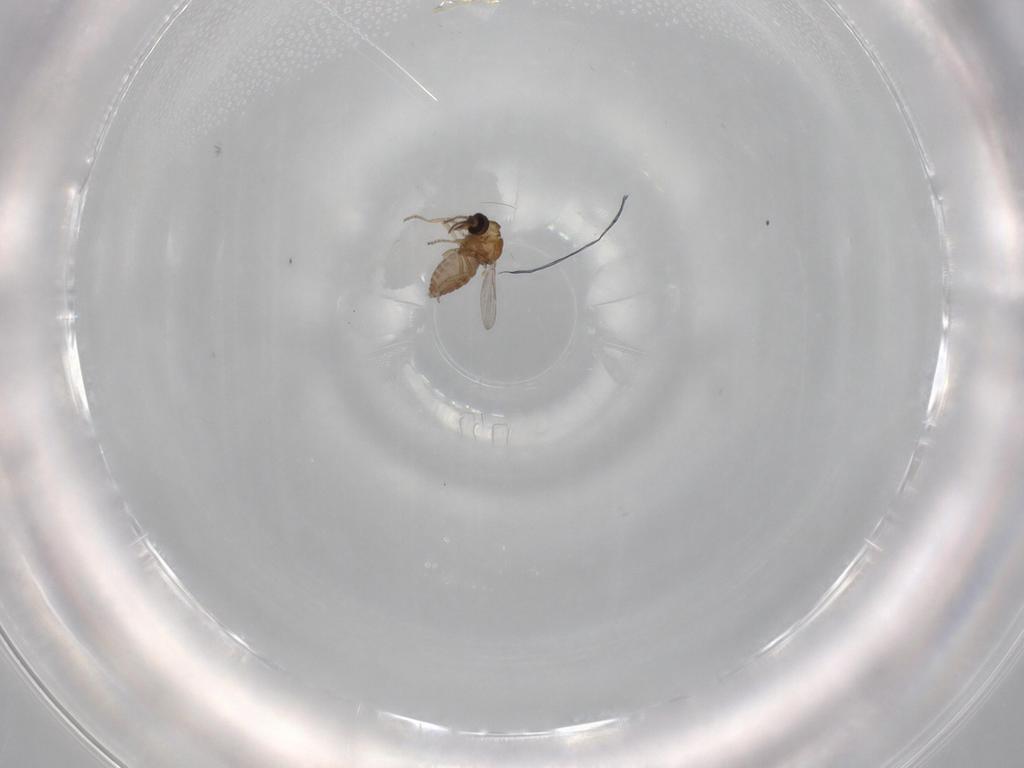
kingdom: Animalia
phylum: Arthropoda
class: Insecta
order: Diptera
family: Ceratopogonidae
